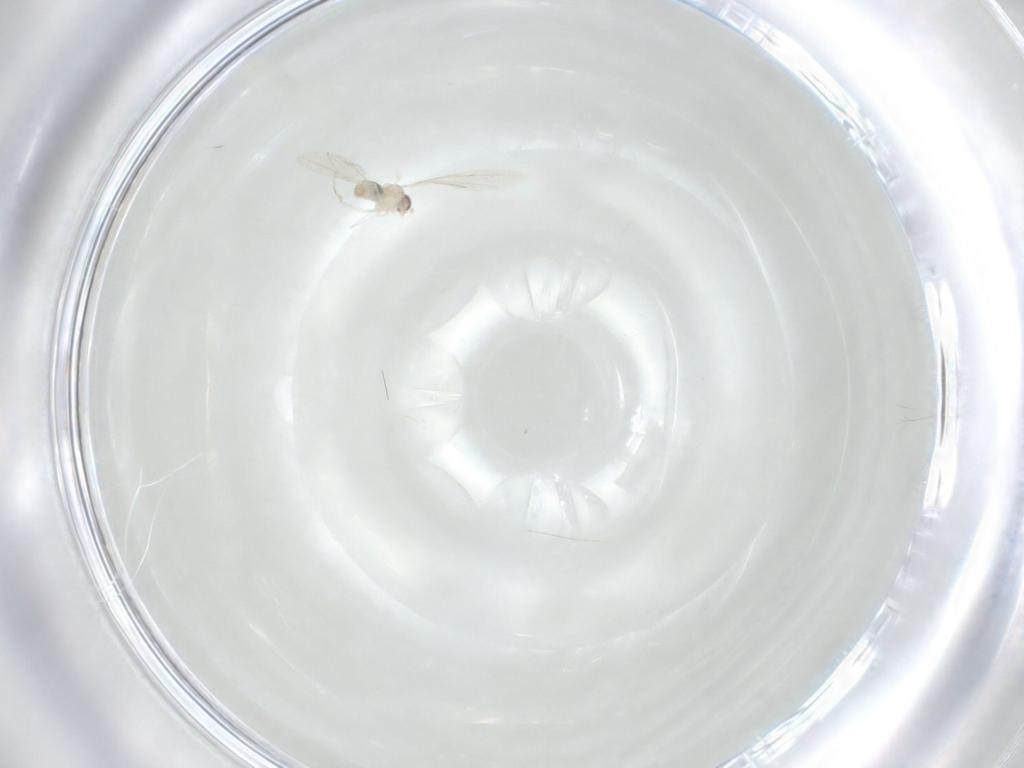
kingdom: Animalia
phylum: Arthropoda
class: Insecta
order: Diptera
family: Cecidomyiidae
